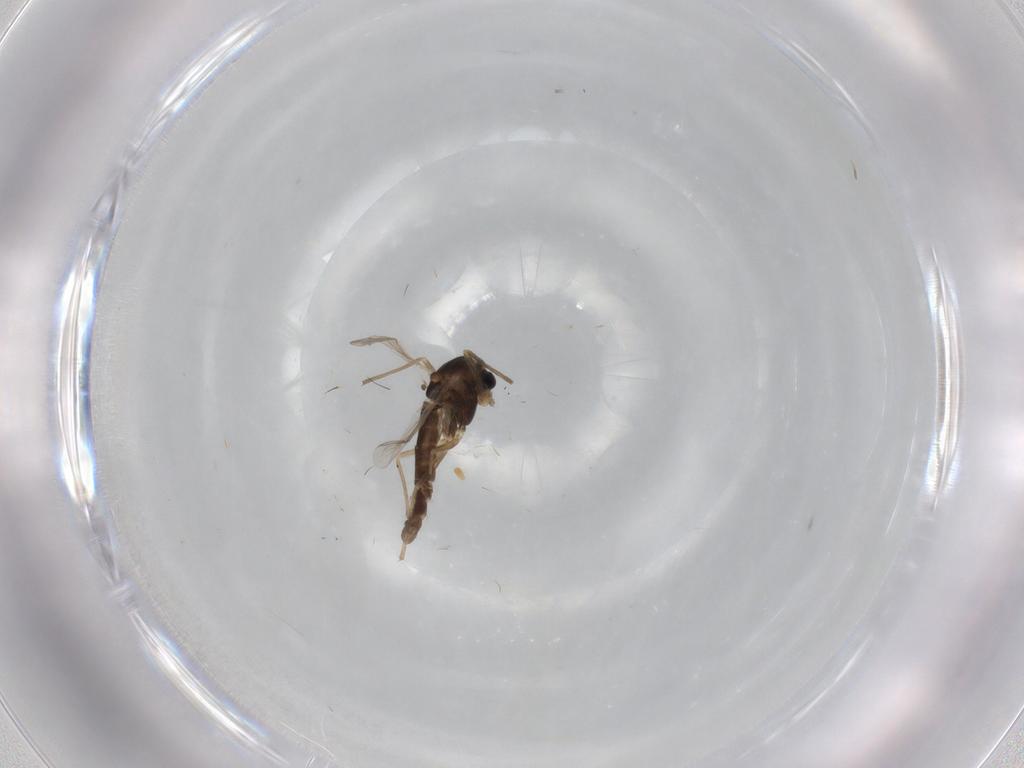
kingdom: Animalia
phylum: Arthropoda
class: Insecta
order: Diptera
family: Chironomidae
